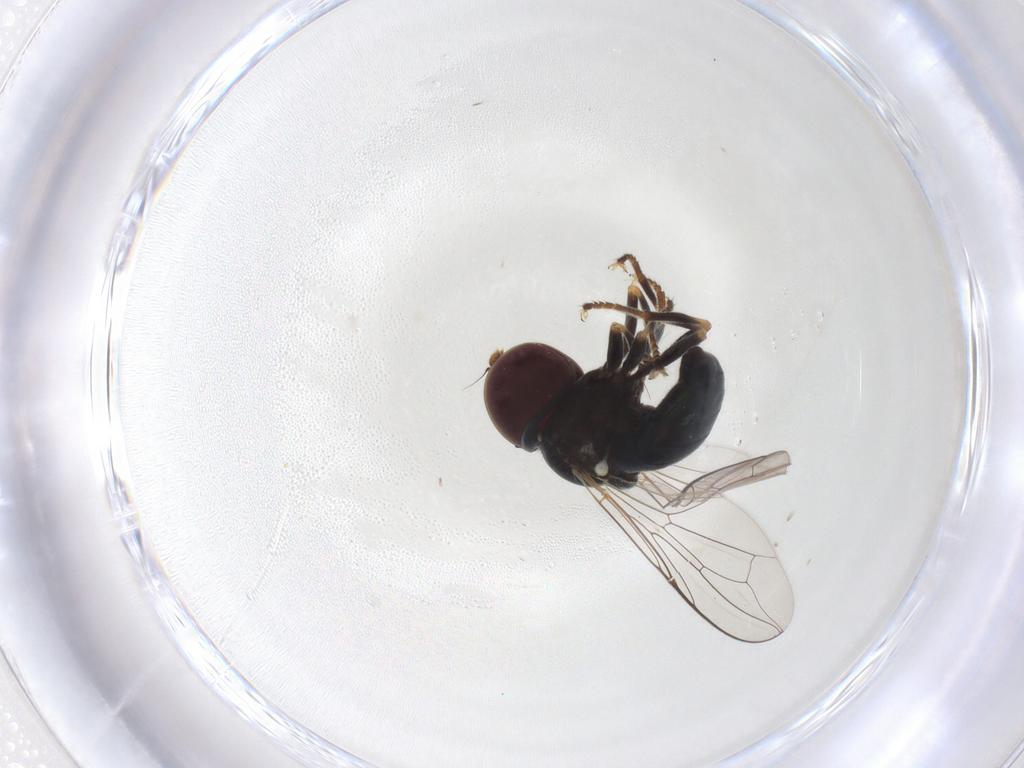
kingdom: Animalia
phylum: Arthropoda
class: Insecta
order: Diptera
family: Pipunculidae
